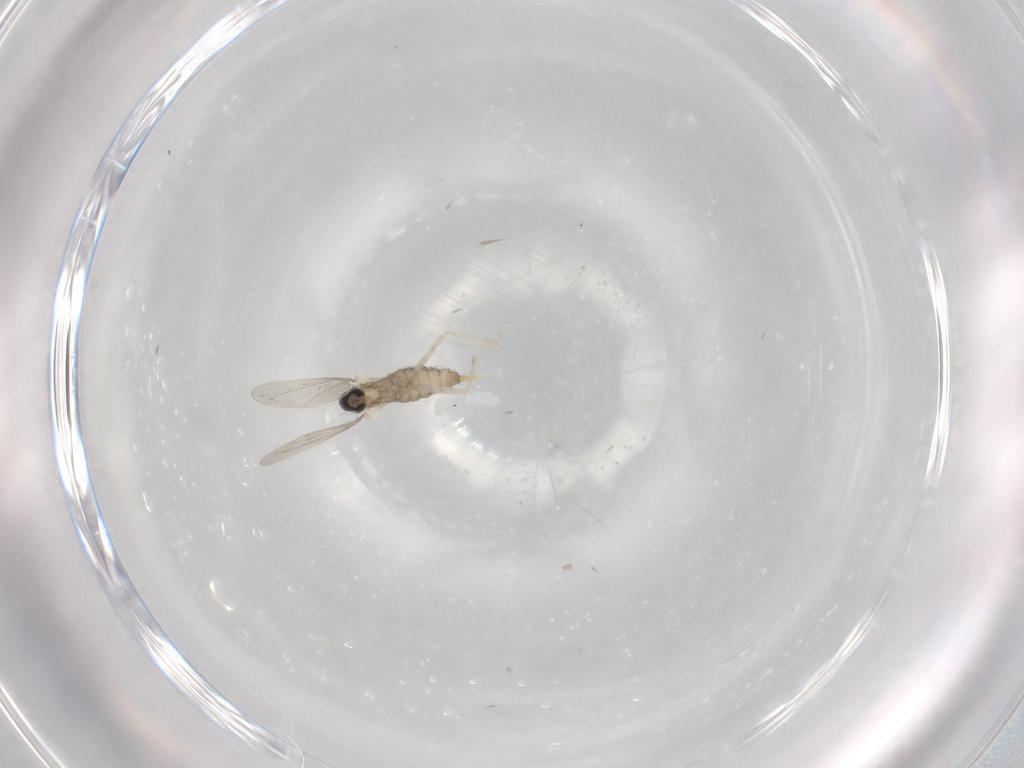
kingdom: Animalia
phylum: Arthropoda
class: Insecta
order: Diptera
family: Cecidomyiidae
